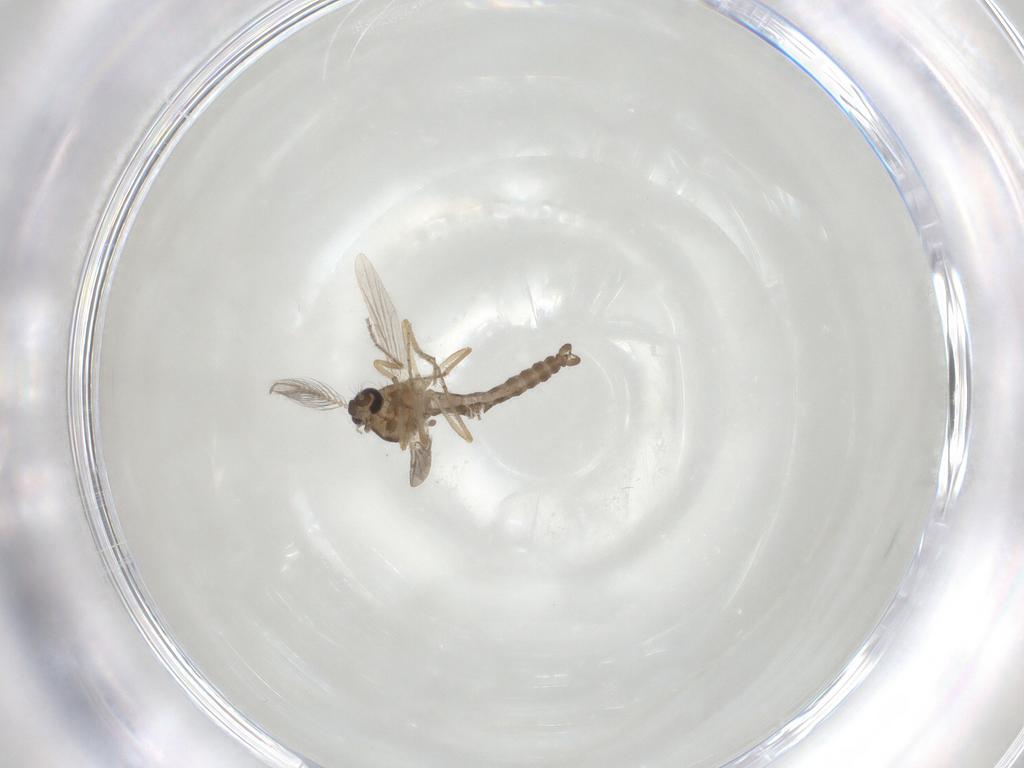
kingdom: Animalia
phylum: Arthropoda
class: Insecta
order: Diptera
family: Ceratopogonidae
